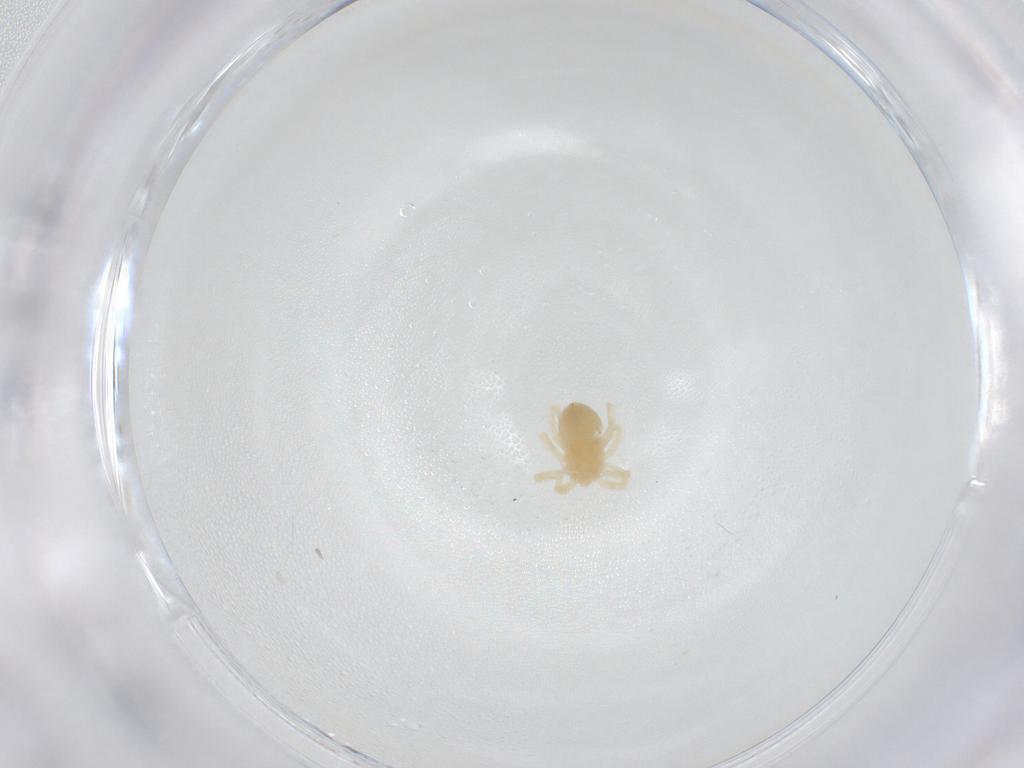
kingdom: Animalia
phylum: Arthropoda
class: Arachnida
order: Trombidiformes
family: Anystidae
